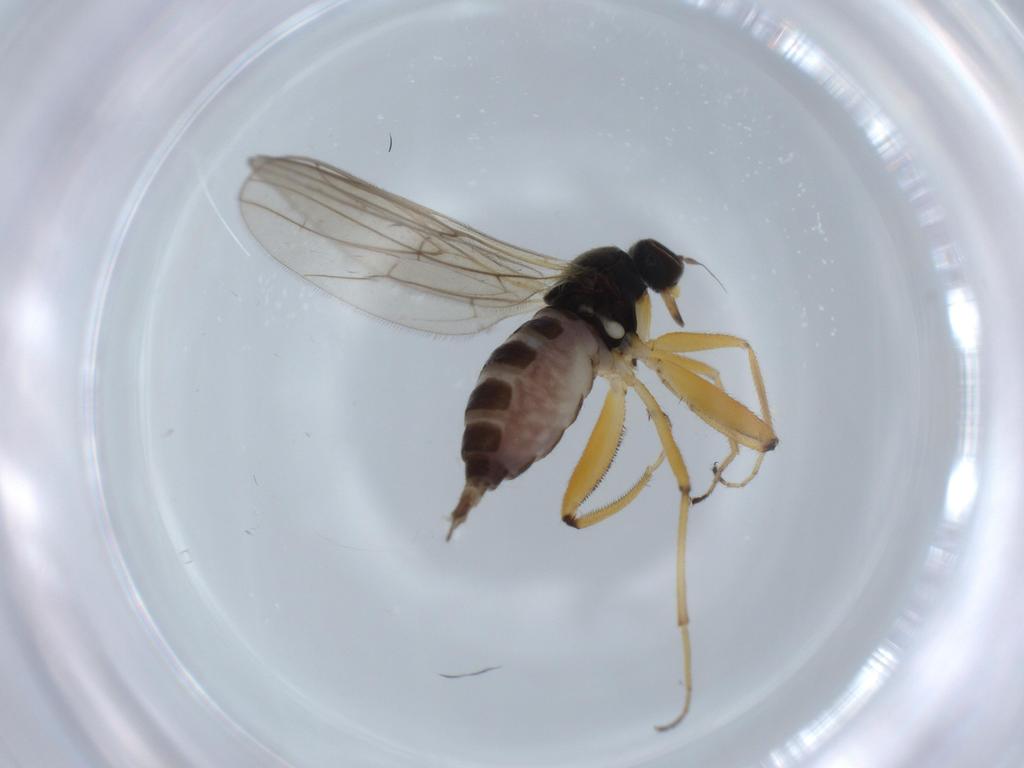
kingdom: Animalia
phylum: Arthropoda
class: Insecta
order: Diptera
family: Hybotidae
